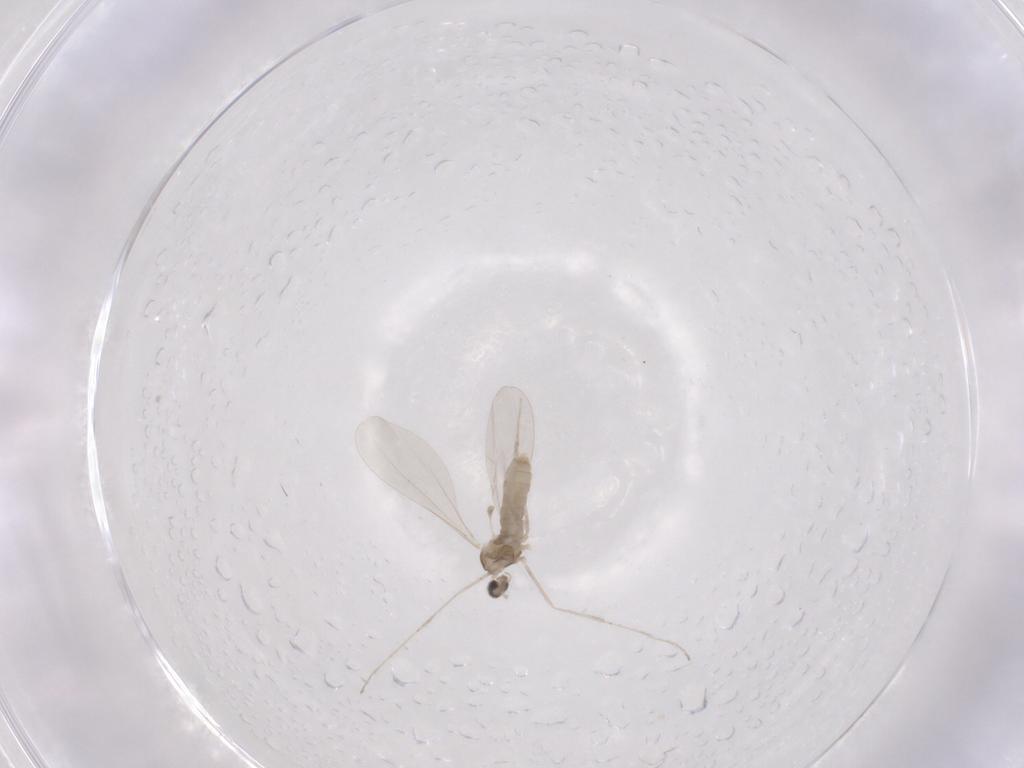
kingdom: Animalia
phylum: Arthropoda
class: Insecta
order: Diptera
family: Cecidomyiidae
